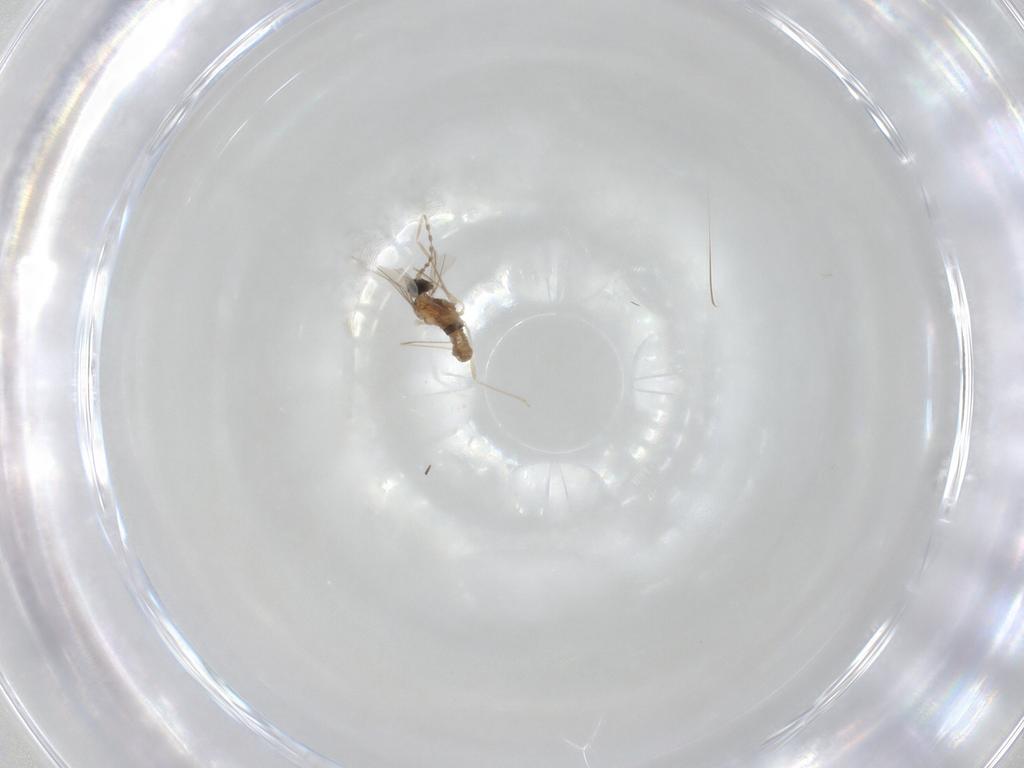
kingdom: Animalia
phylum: Arthropoda
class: Insecta
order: Diptera
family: Cecidomyiidae
